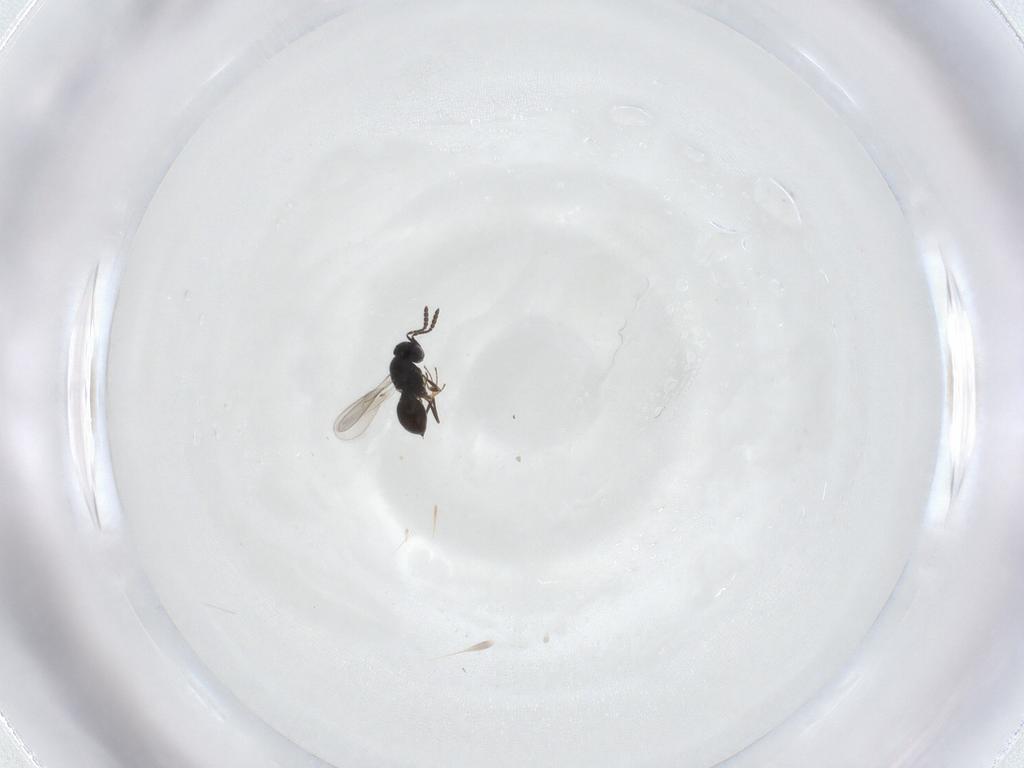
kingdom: Animalia
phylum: Arthropoda
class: Insecta
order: Hymenoptera
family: Scelionidae
